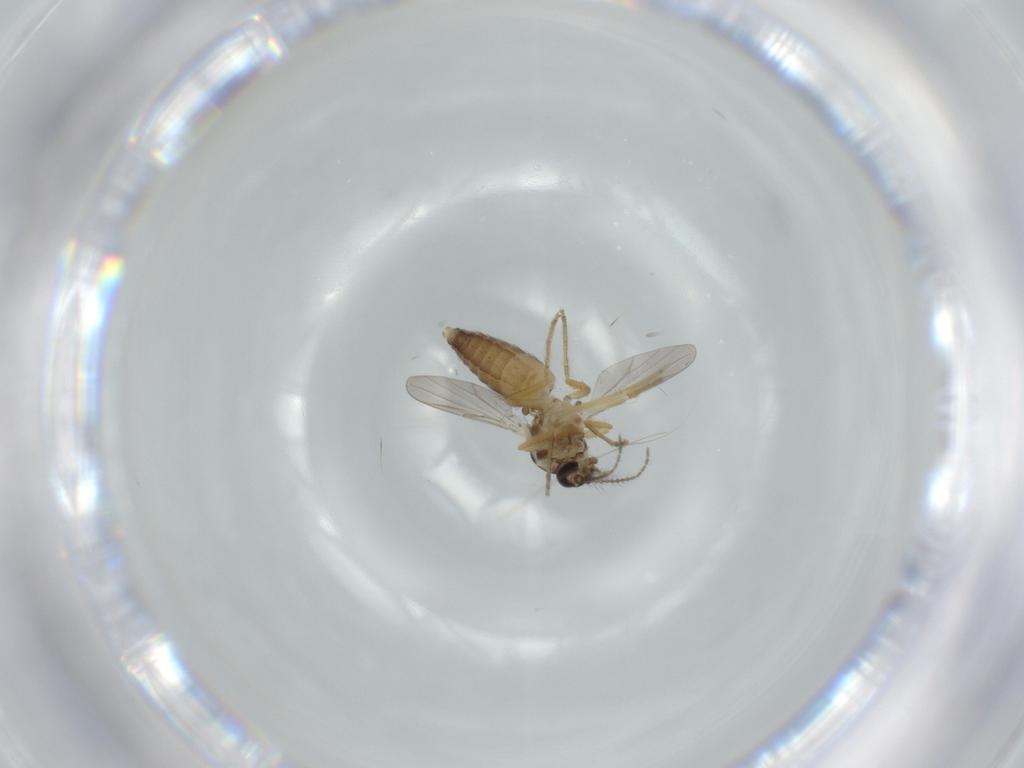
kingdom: Animalia
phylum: Arthropoda
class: Insecta
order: Diptera
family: Ceratopogonidae
